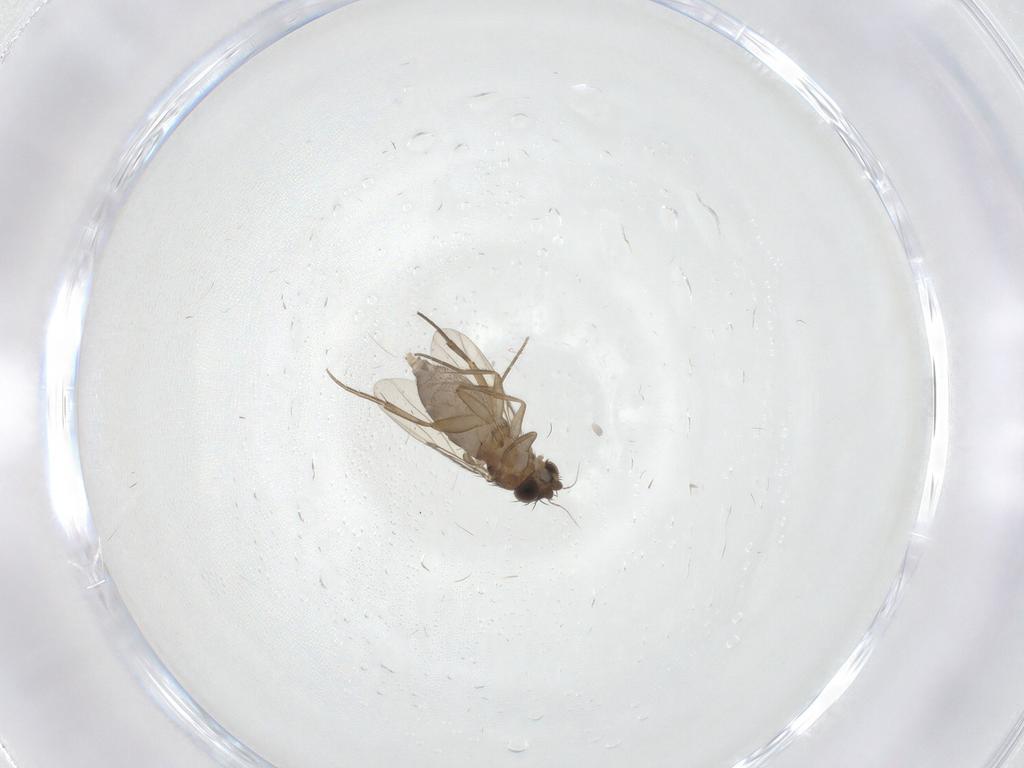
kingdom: Animalia
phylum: Arthropoda
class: Insecta
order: Diptera
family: Phoridae
